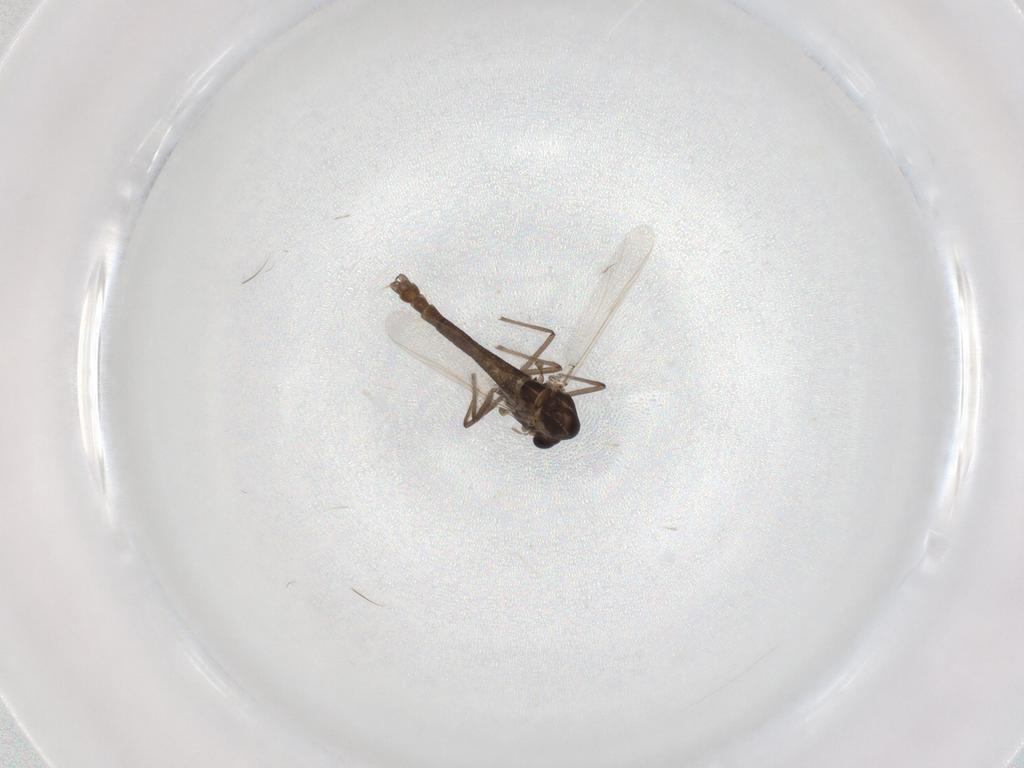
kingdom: Animalia
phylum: Arthropoda
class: Insecta
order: Diptera
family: Chironomidae
